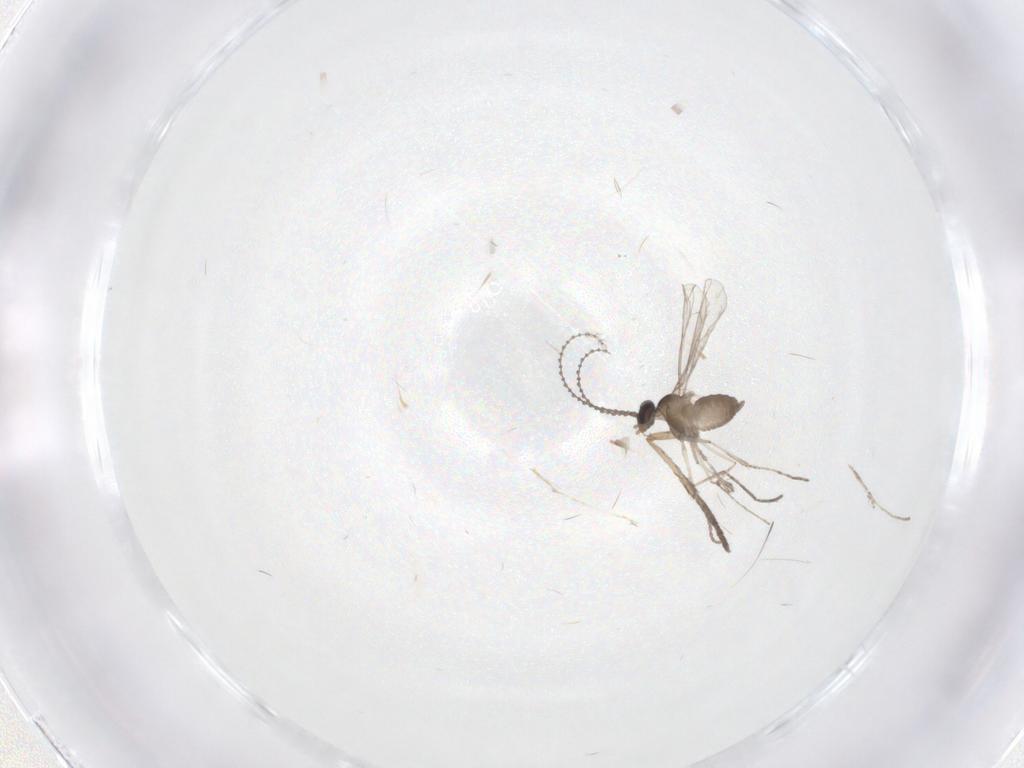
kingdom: Animalia
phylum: Arthropoda
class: Insecta
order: Diptera
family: Psychodidae
